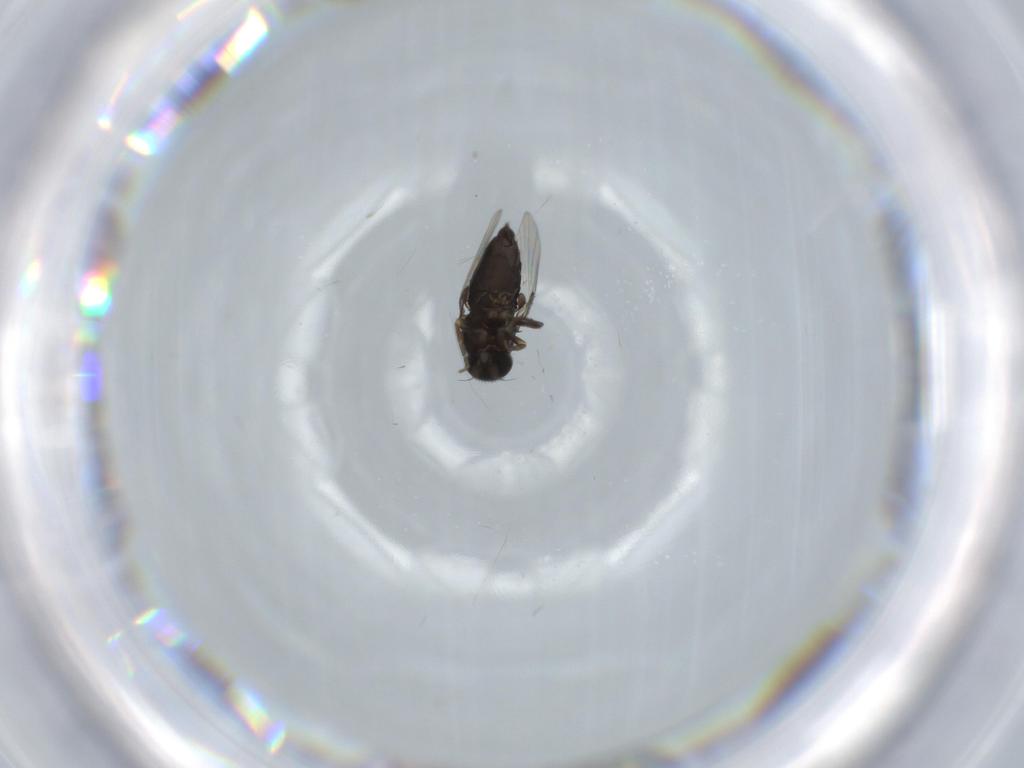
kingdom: Animalia
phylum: Arthropoda
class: Insecta
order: Diptera
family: Phoridae
